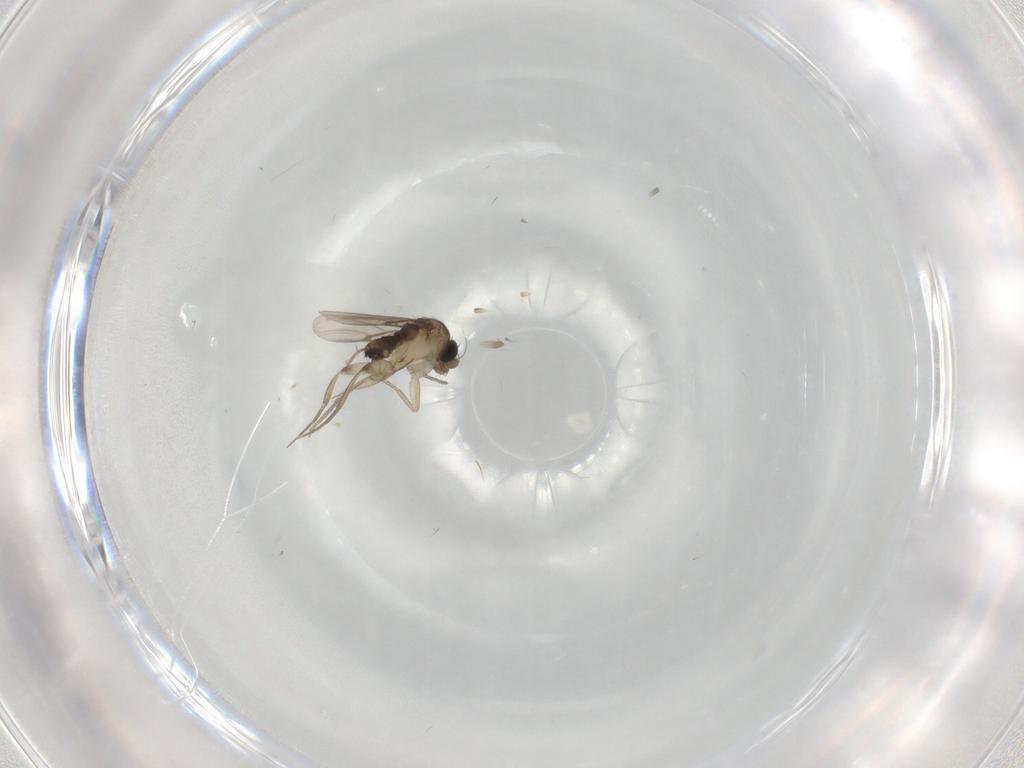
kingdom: Animalia
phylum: Arthropoda
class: Insecta
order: Diptera
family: Phoridae
